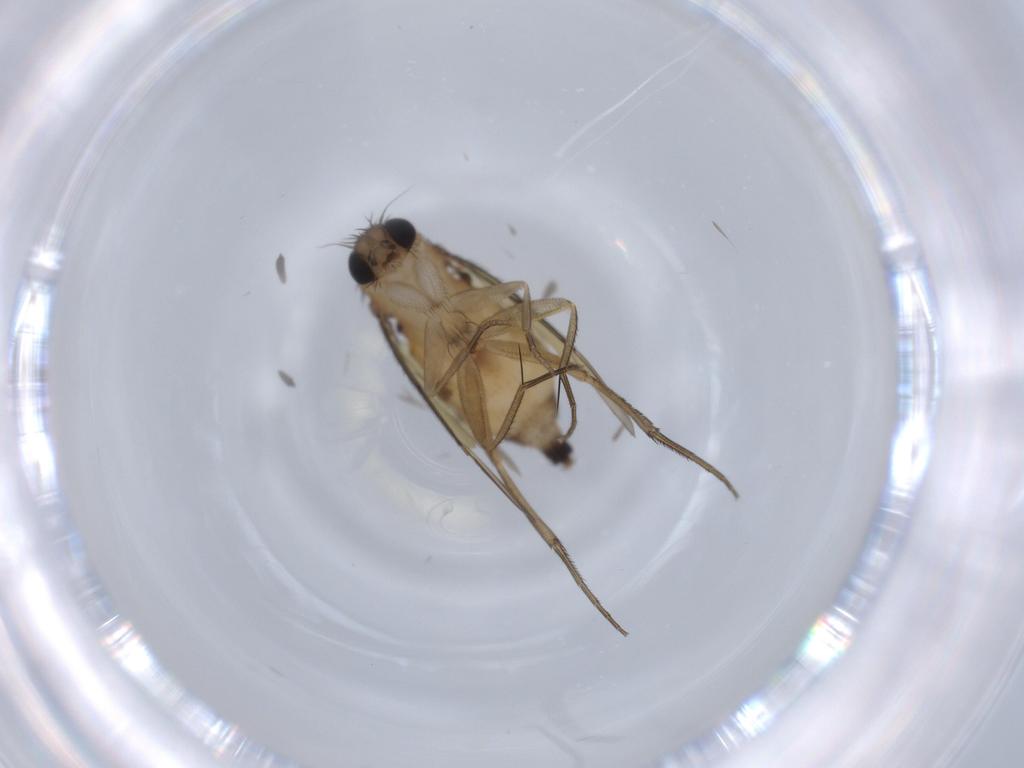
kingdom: Animalia
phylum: Arthropoda
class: Insecta
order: Diptera
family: Phoridae
